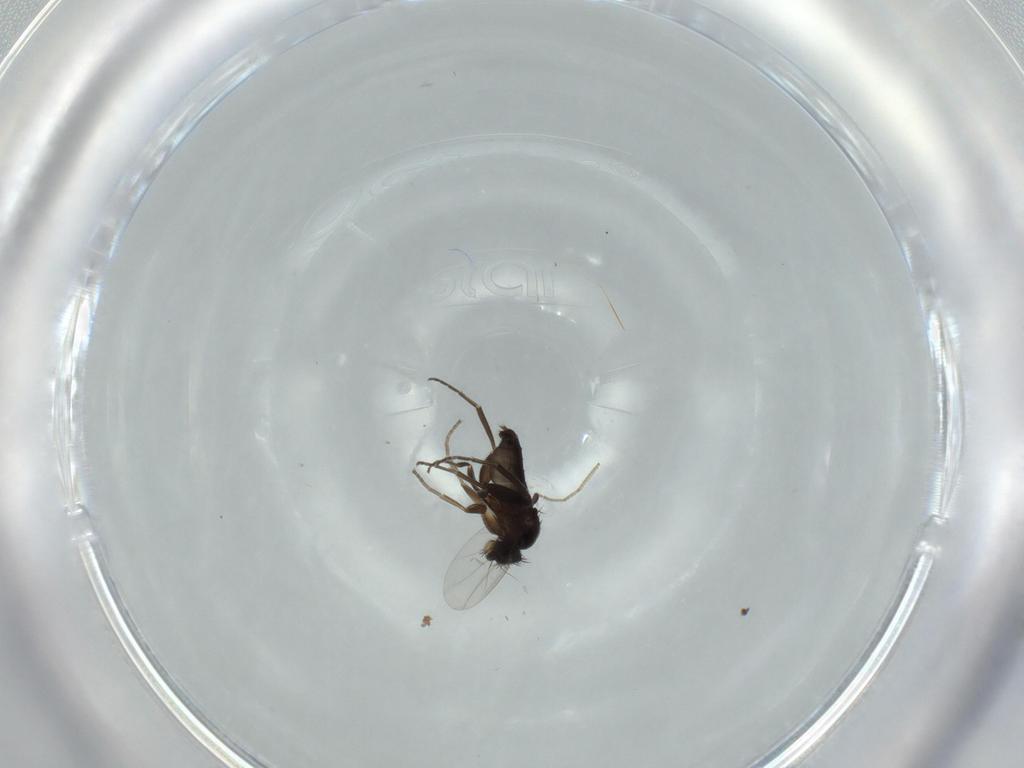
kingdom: Animalia
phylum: Arthropoda
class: Insecta
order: Diptera
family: Phoridae
